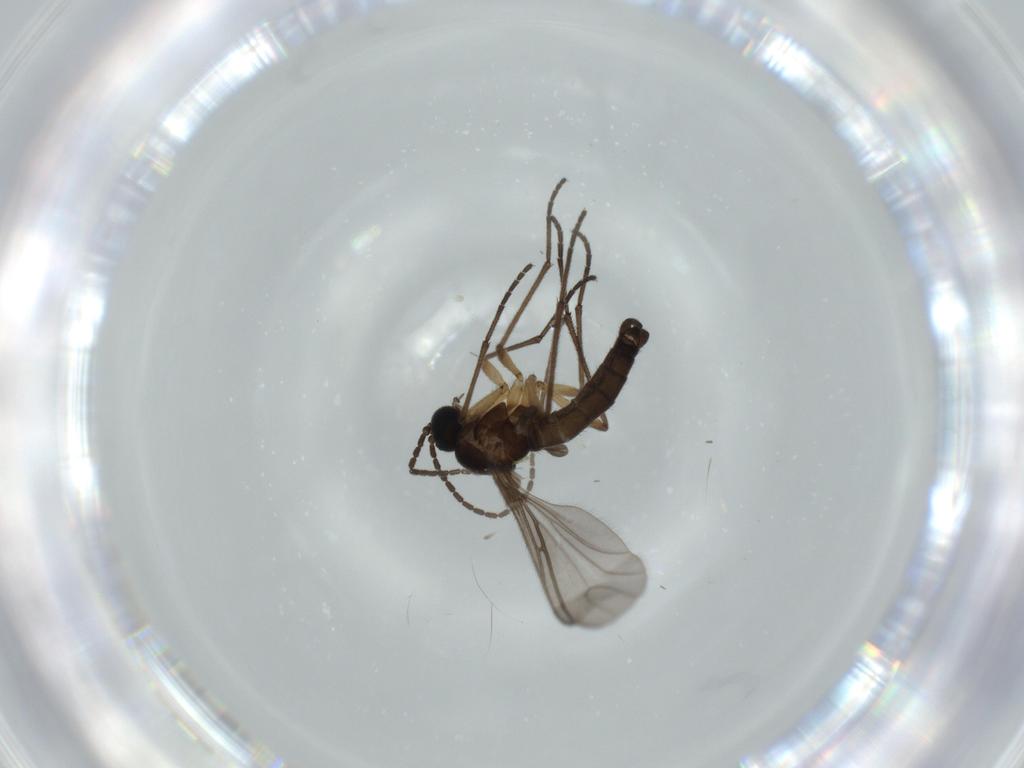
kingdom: Animalia
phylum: Arthropoda
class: Insecta
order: Diptera
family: Sciaridae
